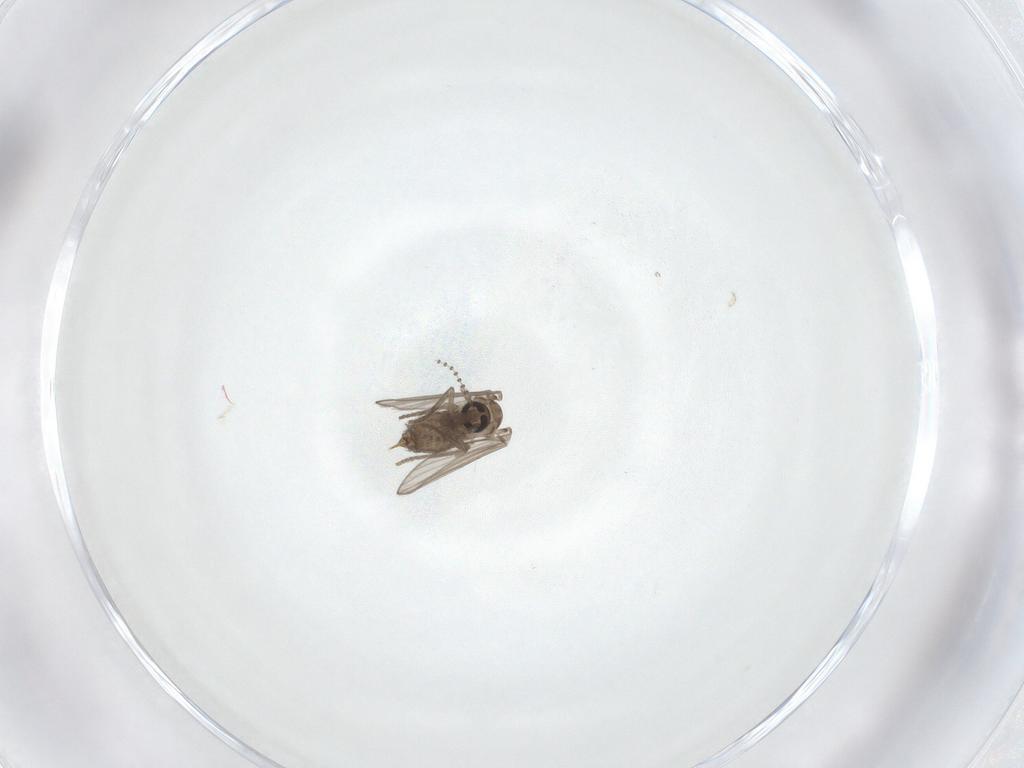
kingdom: Animalia
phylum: Arthropoda
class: Insecta
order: Diptera
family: Psychodidae
